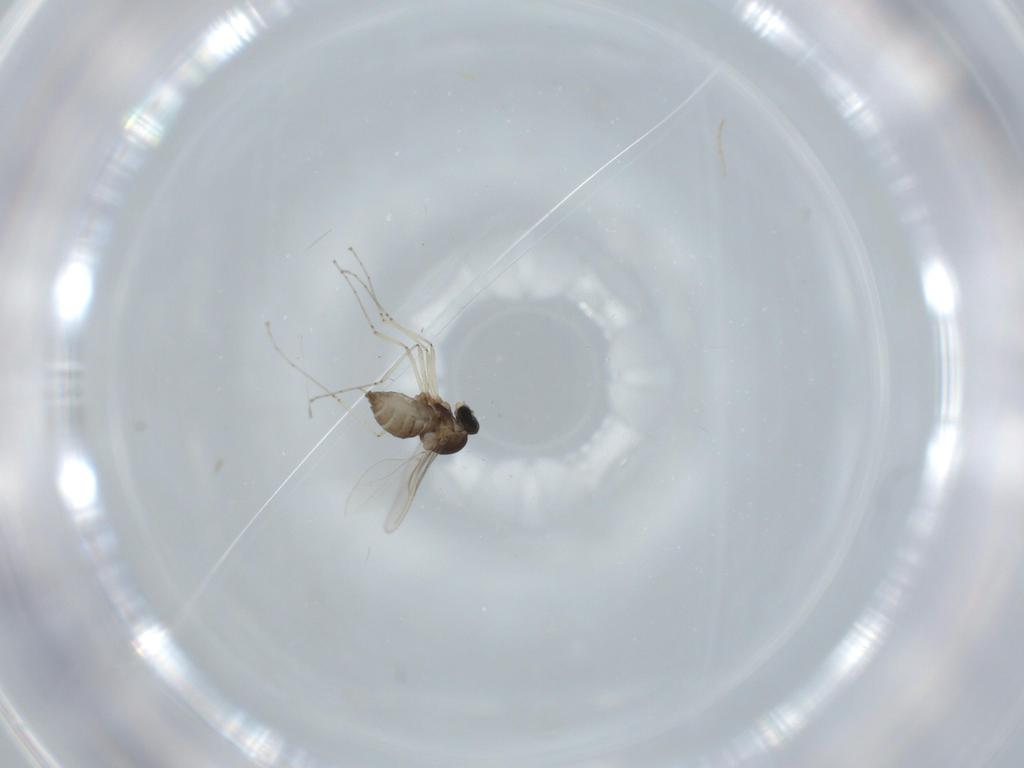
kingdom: Animalia
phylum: Arthropoda
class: Insecta
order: Diptera
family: Cecidomyiidae
